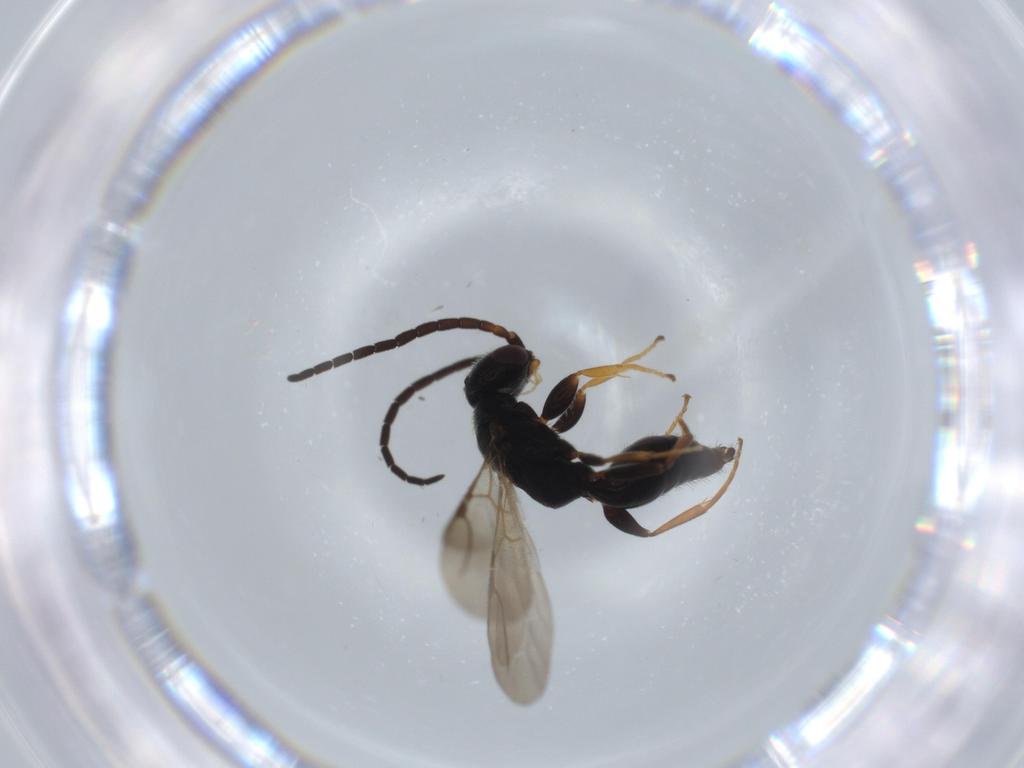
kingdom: Animalia
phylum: Arthropoda
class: Insecta
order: Hymenoptera
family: Bethylidae
